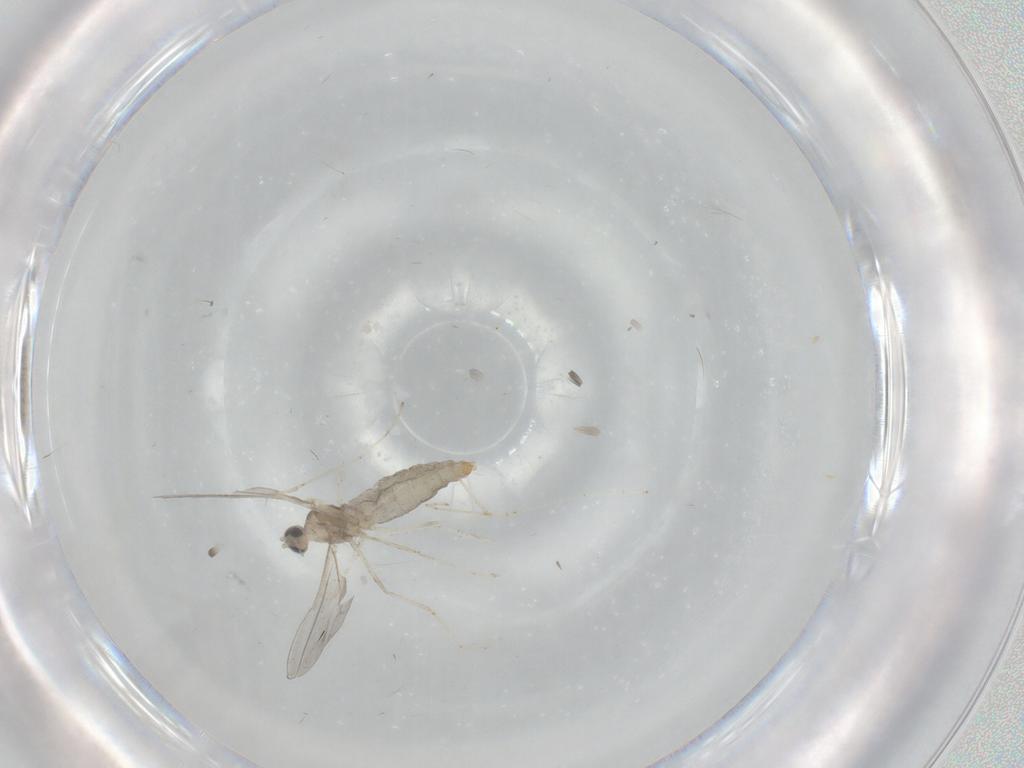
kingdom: Animalia
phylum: Arthropoda
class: Insecta
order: Diptera
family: Cecidomyiidae
